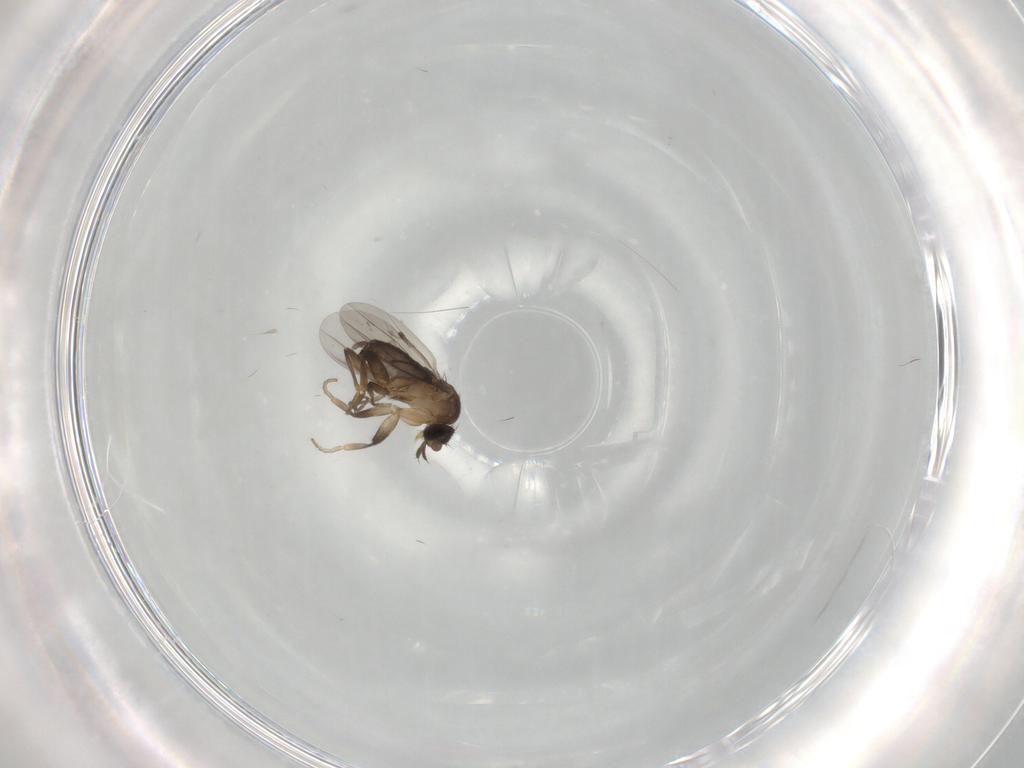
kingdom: Animalia
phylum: Arthropoda
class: Insecta
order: Diptera
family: Phoridae
